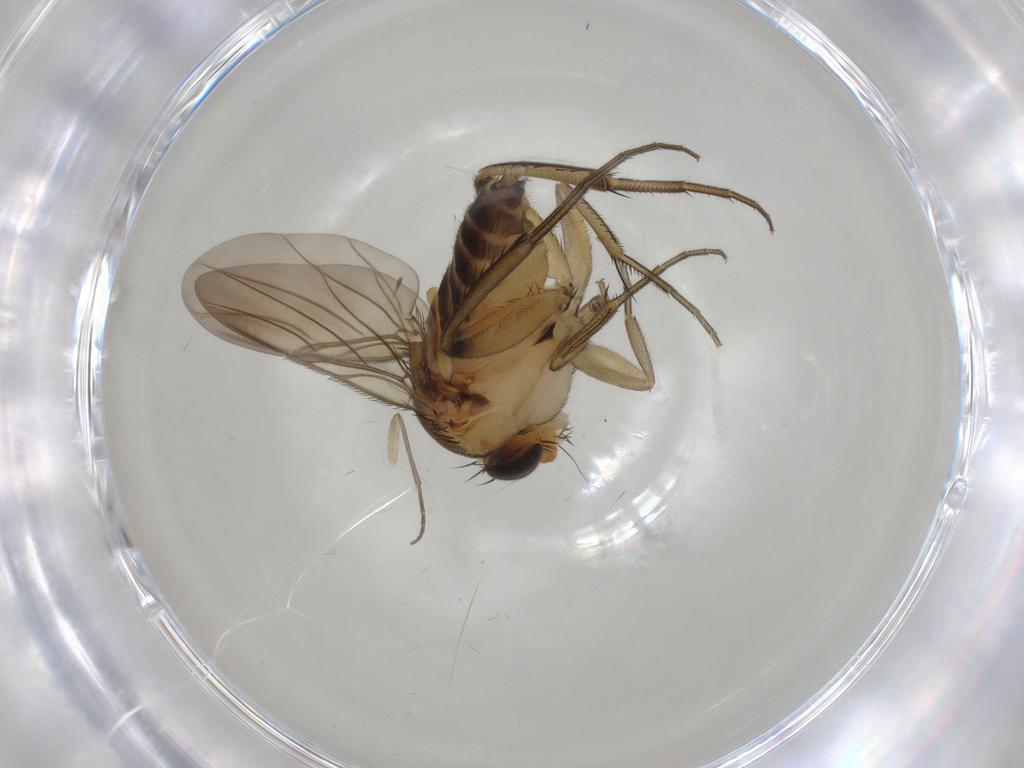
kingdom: Animalia
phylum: Arthropoda
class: Insecta
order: Diptera
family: Sciaridae
